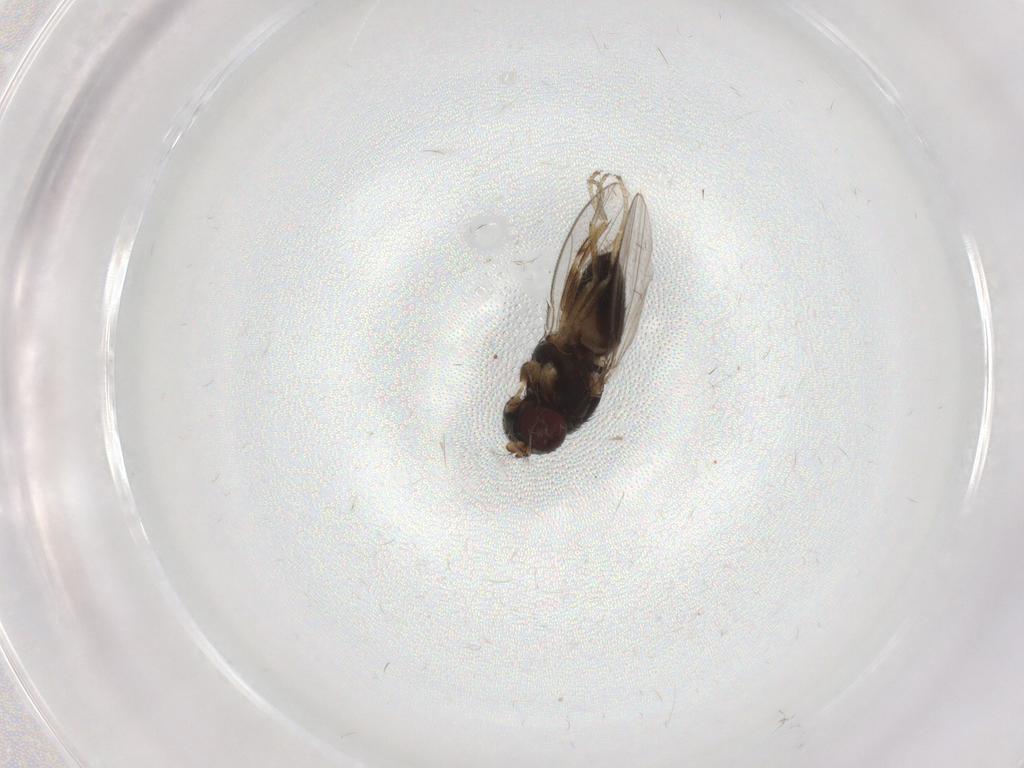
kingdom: Animalia
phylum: Arthropoda
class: Insecta
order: Diptera
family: Chironomidae
